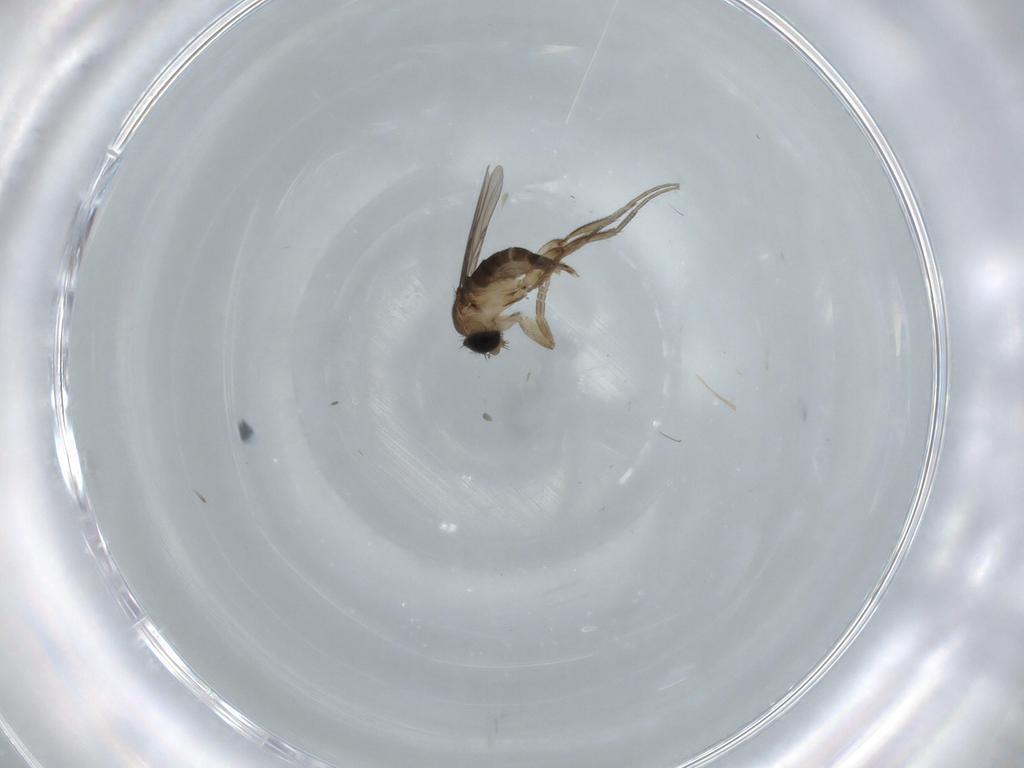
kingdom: Animalia
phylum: Arthropoda
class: Insecta
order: Diptera
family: Phoridae
